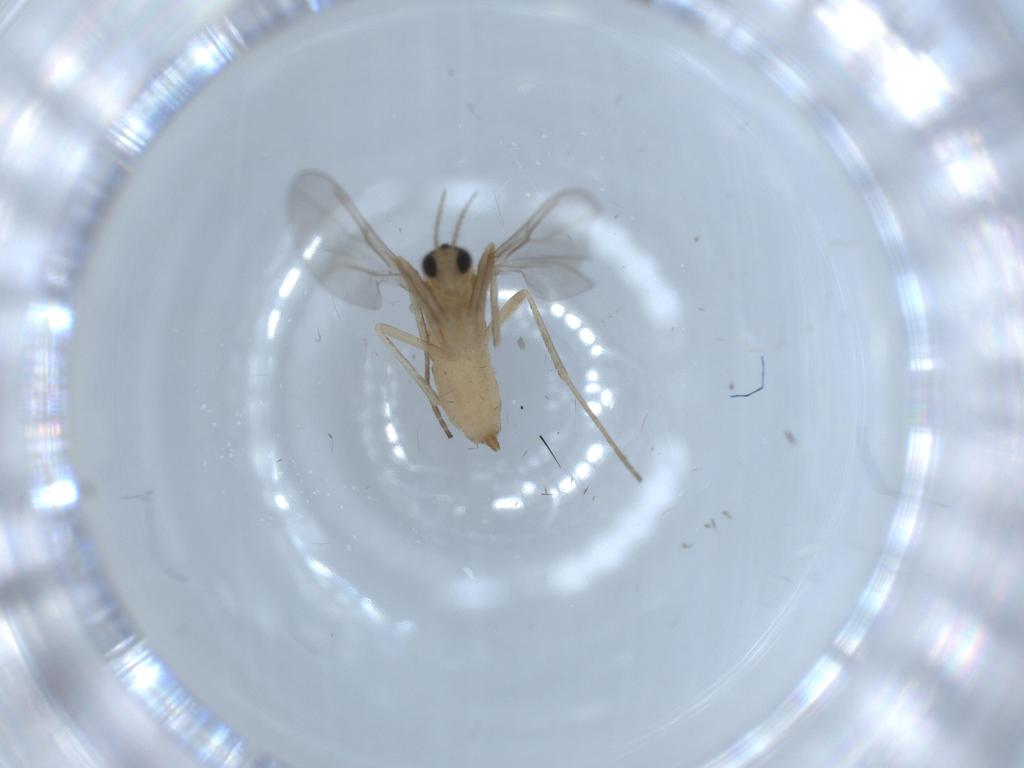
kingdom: Animalia
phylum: Arthropoda
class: Insecta
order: Diptera
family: Cecidomyiidae
